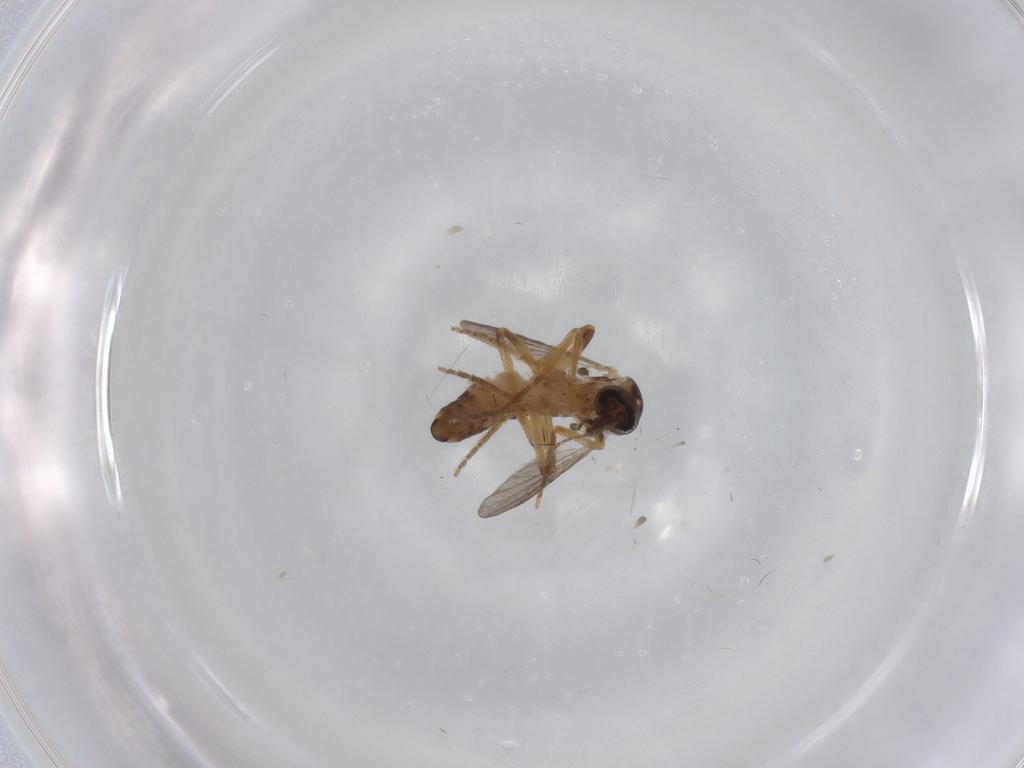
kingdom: Animalia
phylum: Arthropoda
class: Insecta
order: Diptera
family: Ceratopogonidae
